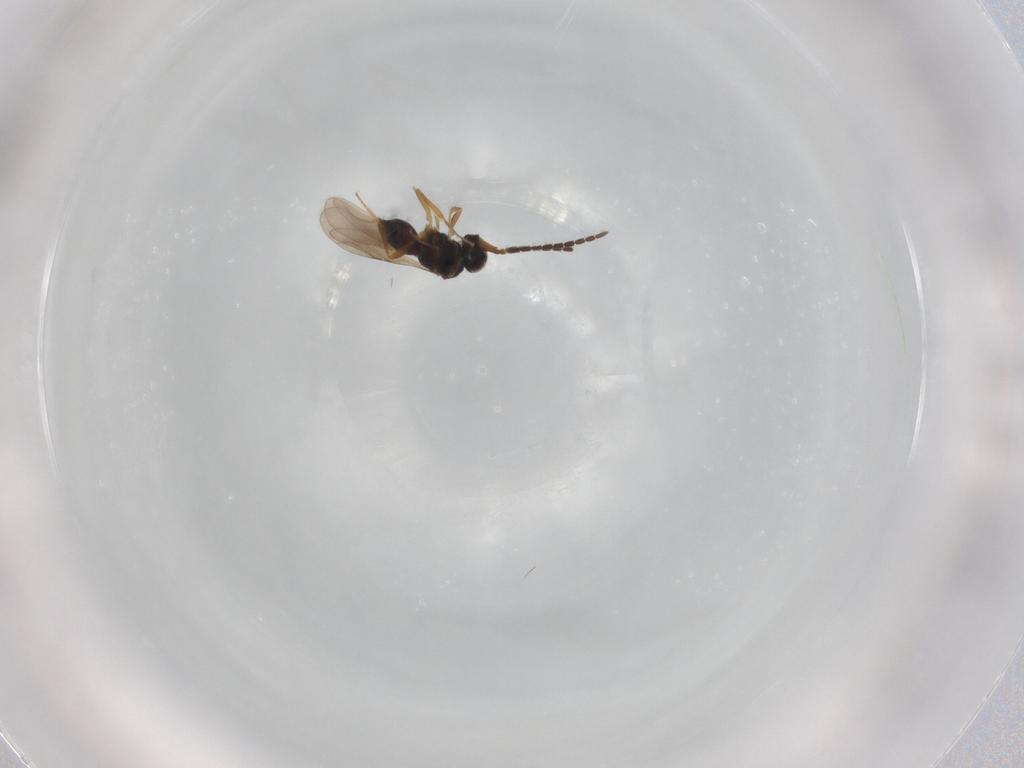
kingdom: Animalia
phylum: Arthropoda
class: Insecta
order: Hymenoptera
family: Ceraphronidae
